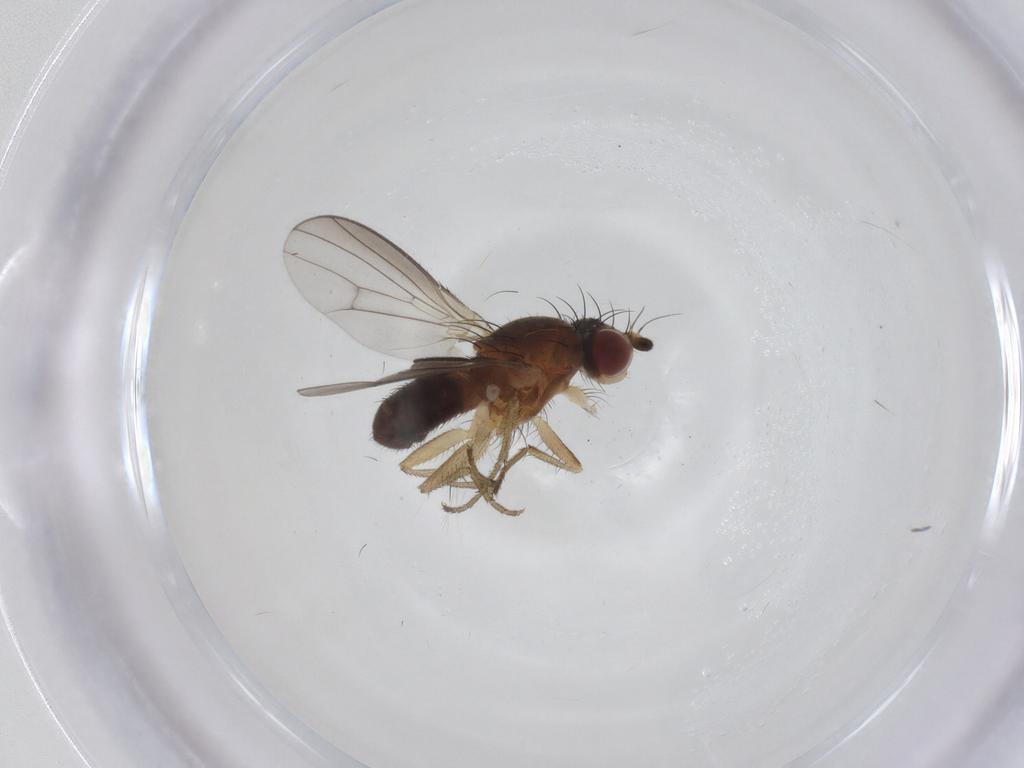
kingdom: Animalia
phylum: Arthropoda
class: Insecta
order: Diptera
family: Heleomyzidae
